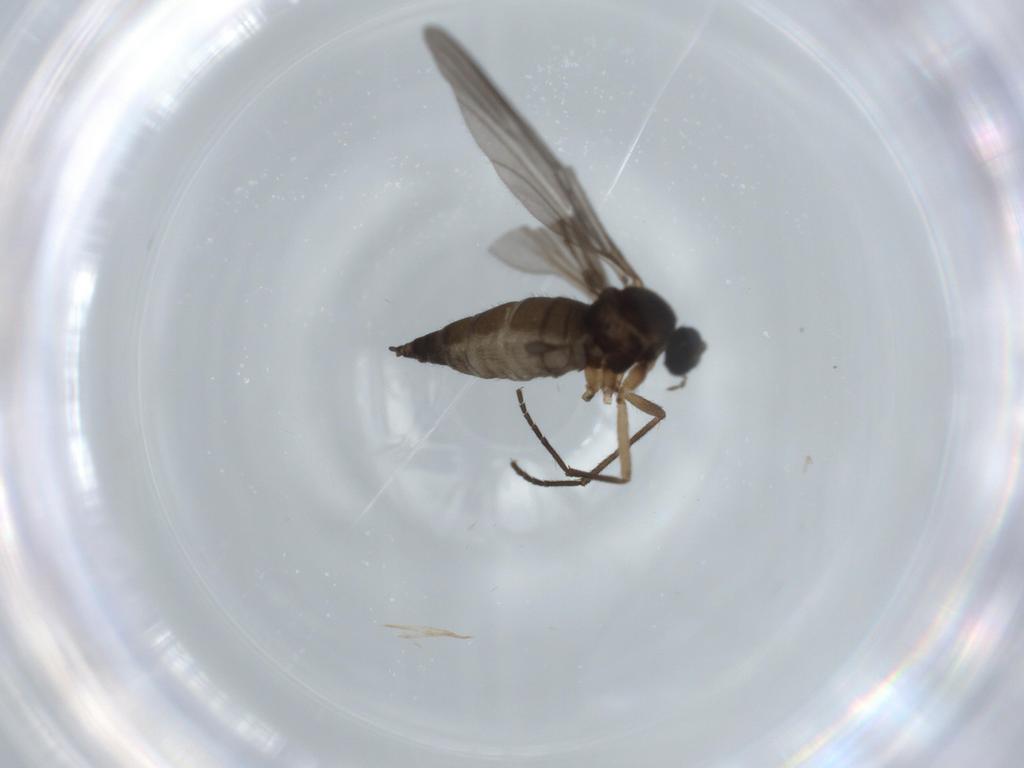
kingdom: Animalia
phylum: Arthropoda
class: Insecta
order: Diptera
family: Sciaridae
